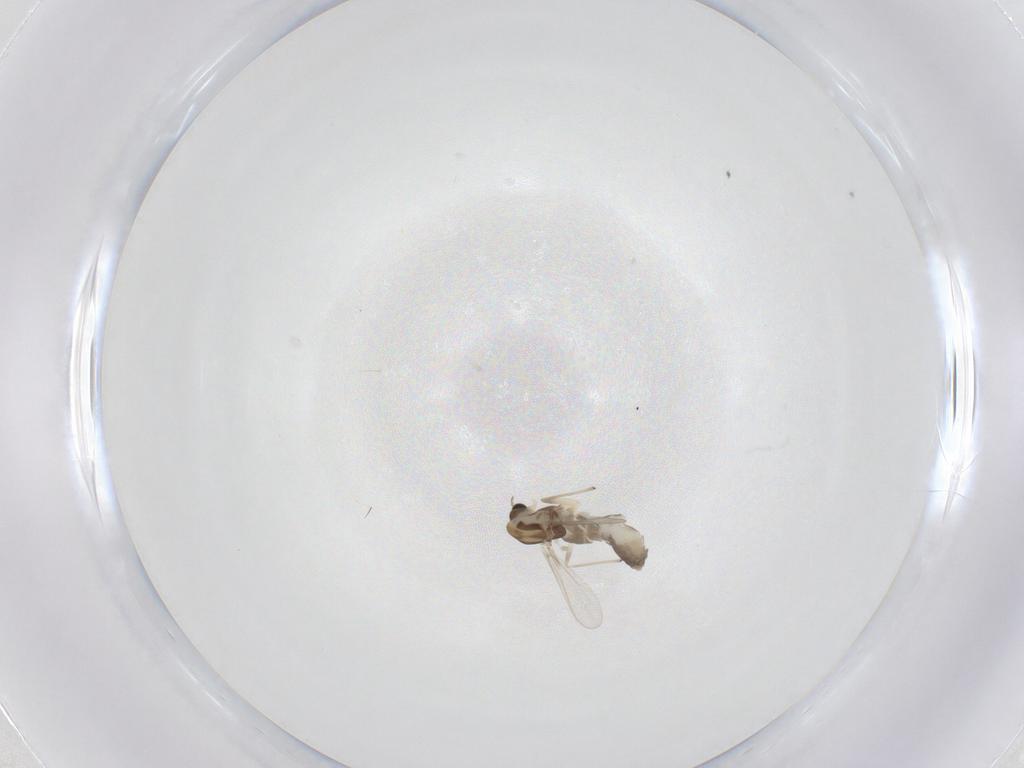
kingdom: Animalia
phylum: Arthropoda
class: Insecta
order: Diptera
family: Chironomidae
